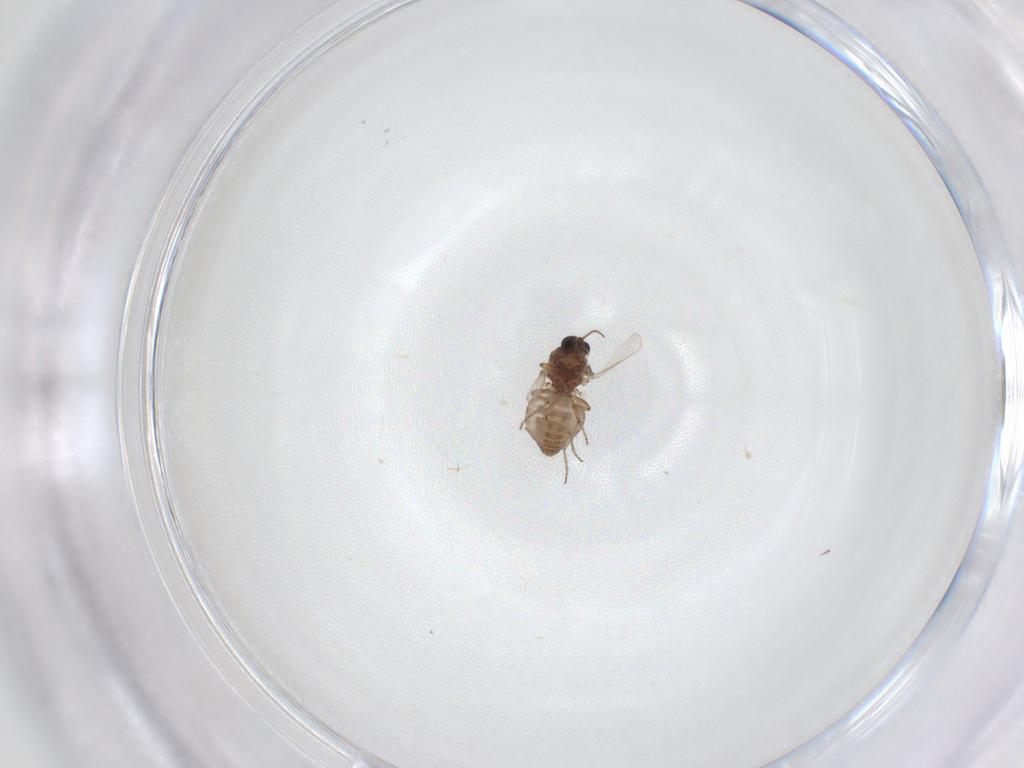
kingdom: Animalia
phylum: Arthropoda
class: Insecta
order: Diptera
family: Ceratopogonidae
